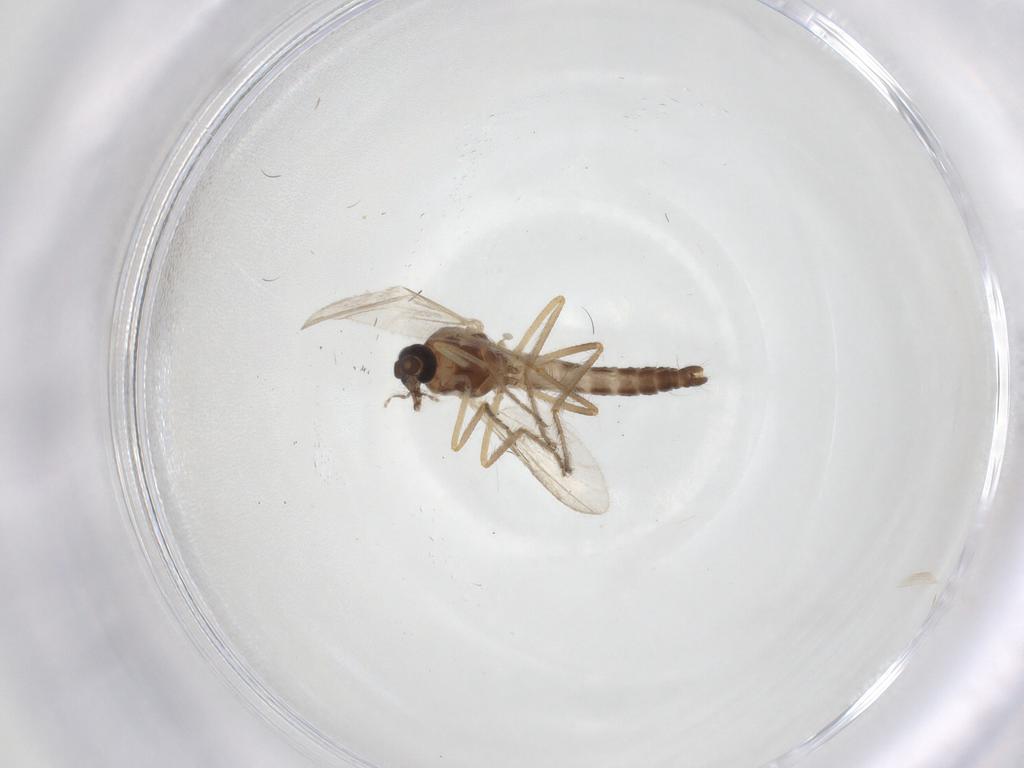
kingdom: Animalia
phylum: Arthropoda
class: Insecta
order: Diptera
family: Ceratopogonidae
